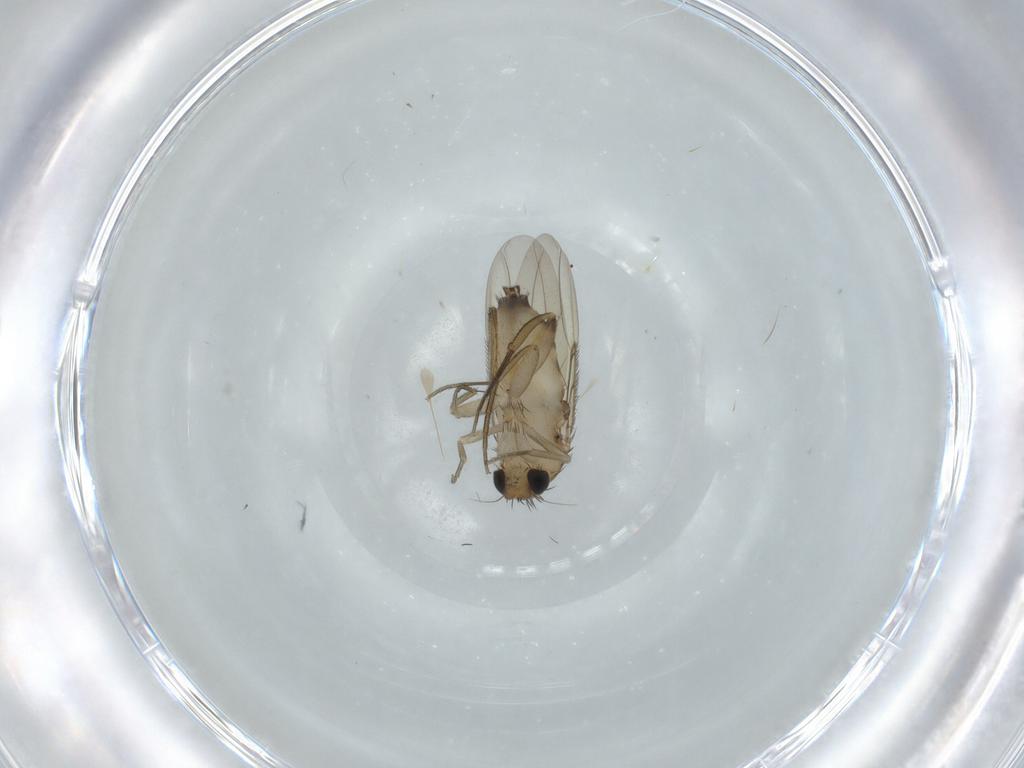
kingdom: Animalia
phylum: Arthropoda
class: Insecta
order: Diptera
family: Phoridae
